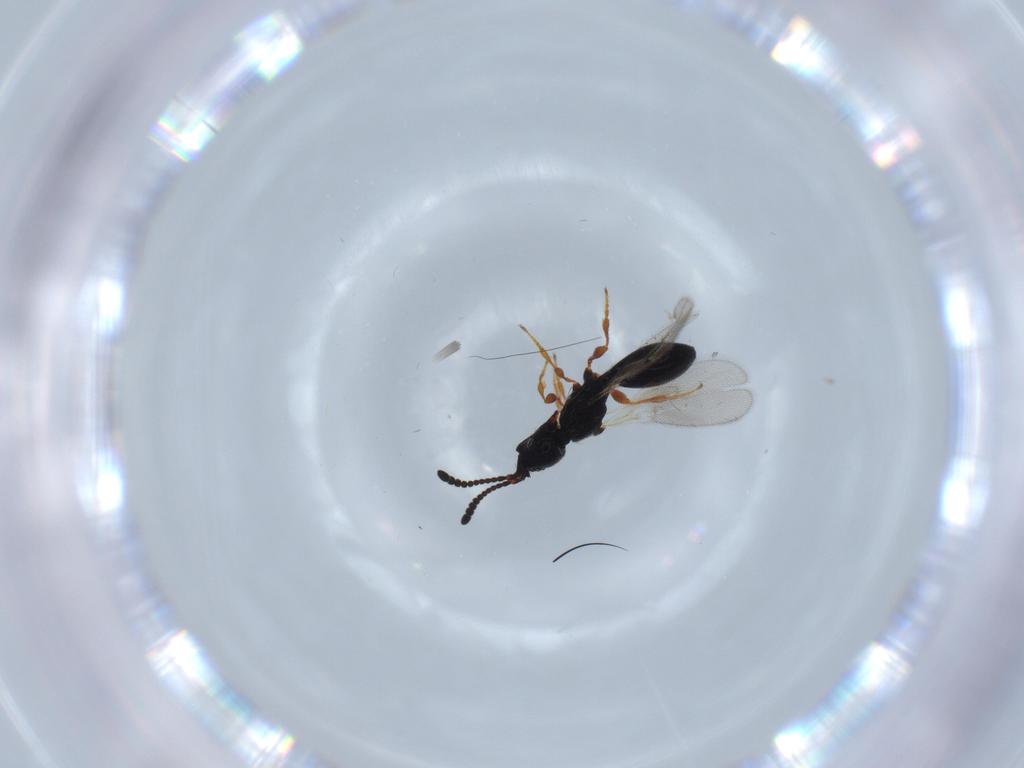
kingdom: Animalia
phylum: Arthropoda
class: Insecta
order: Hymenoptera
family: Diapriidae
